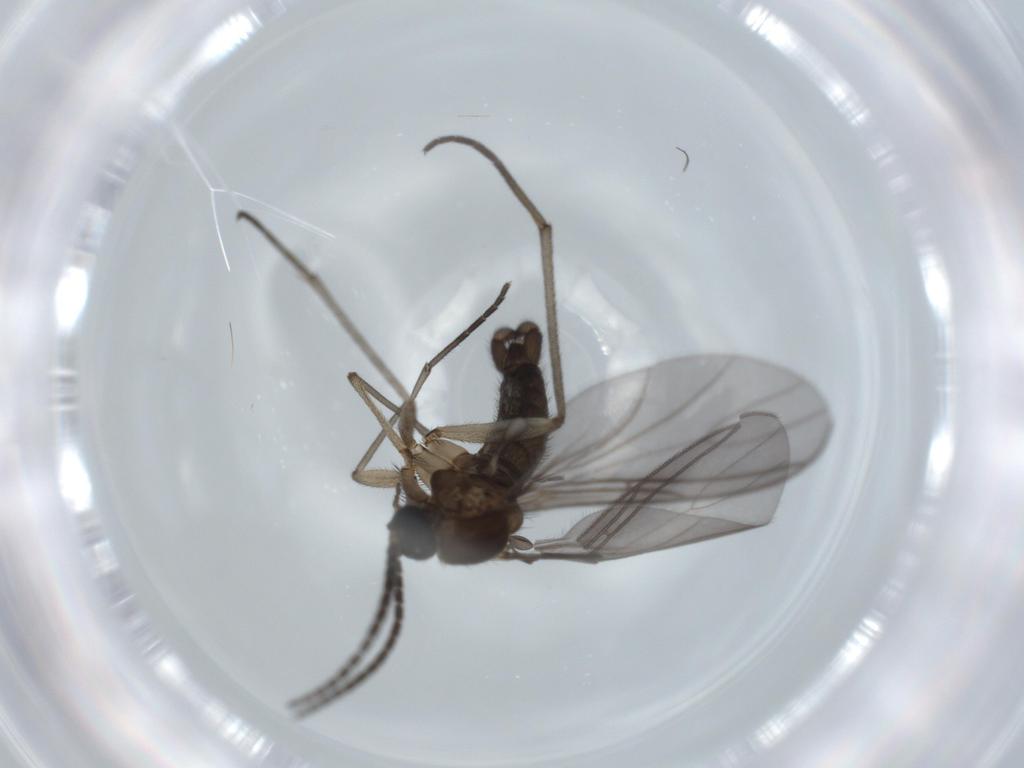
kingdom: Animalia
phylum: Arthropoda
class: Insecta
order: Diptera
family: Sciaridae
